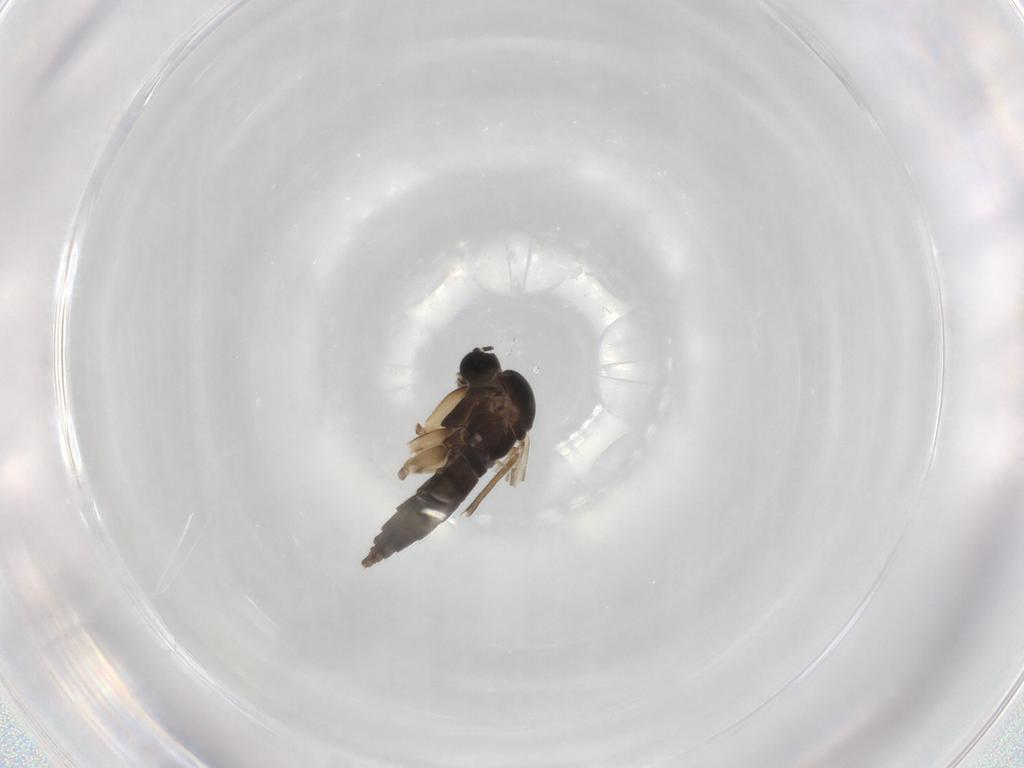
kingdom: Animalia
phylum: Arthropoda
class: Insecta
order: Diptera
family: Sciaridae
